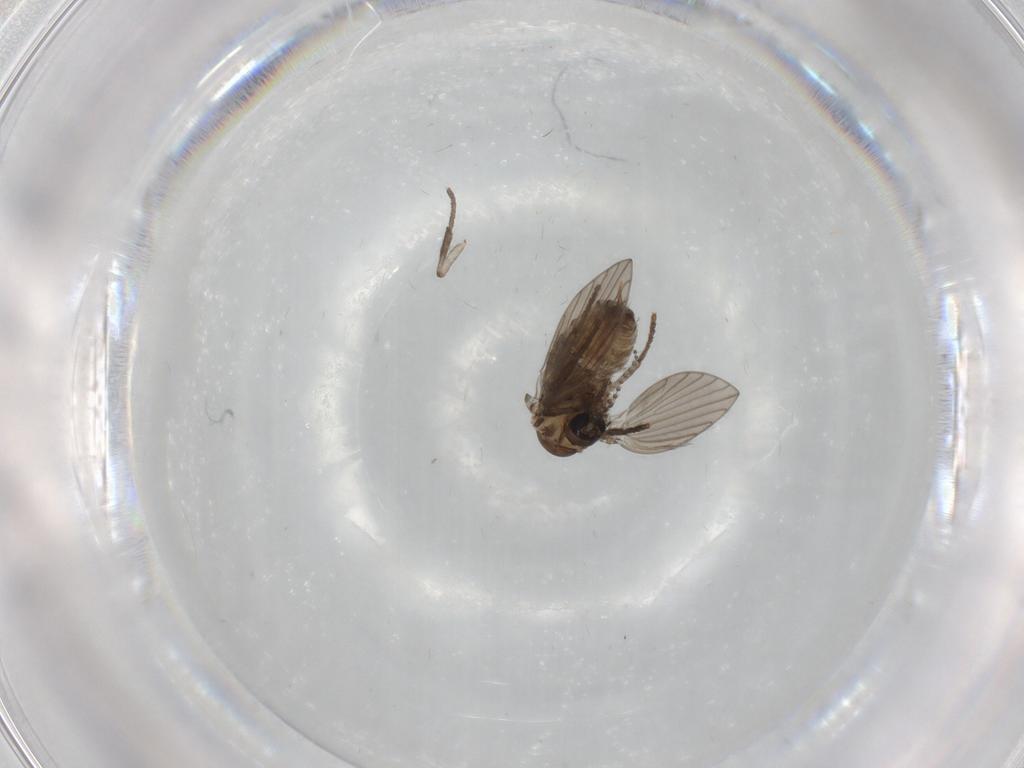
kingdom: Animalia
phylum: Arthropoda
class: Insecta
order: Diptera
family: Psychodidae
